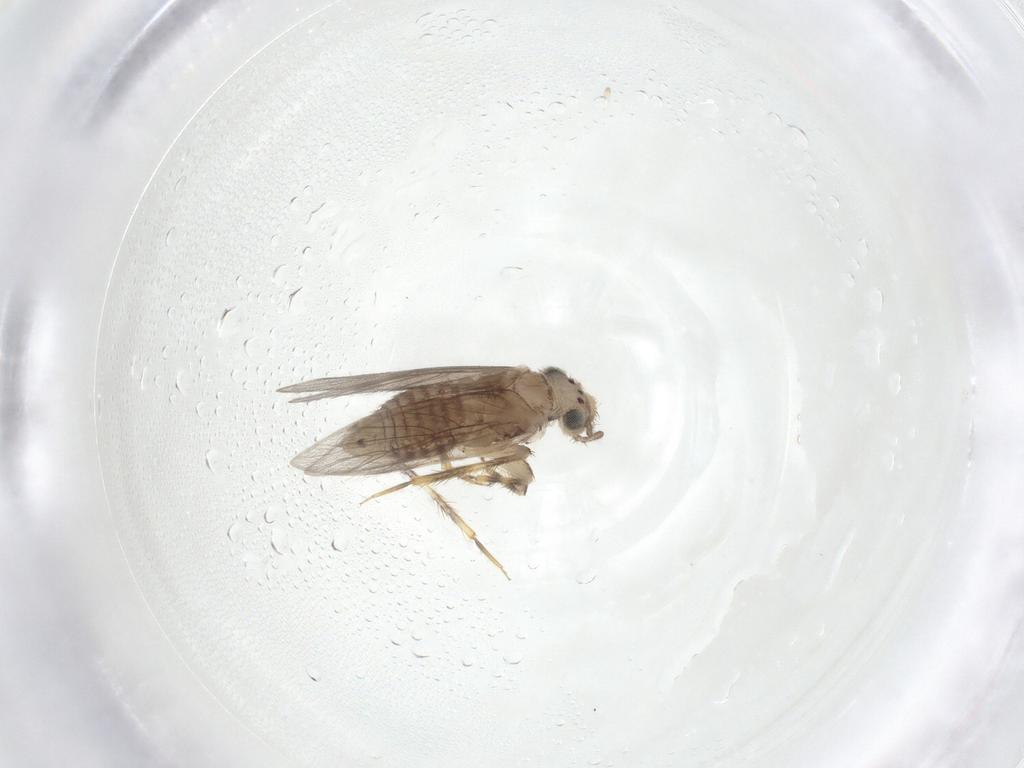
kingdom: Animalia
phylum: Arthropoda
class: Insecta
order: Psocodea
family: Lepidopsocidae
